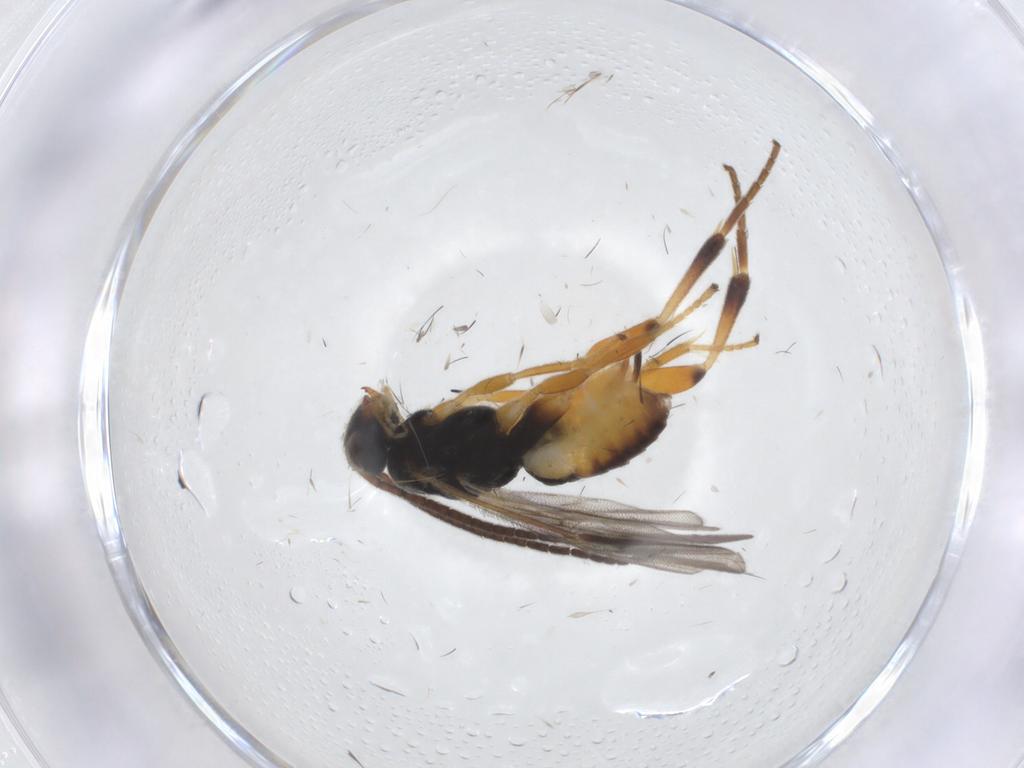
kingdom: Animalia
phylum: Arthropoda
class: Insecta
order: Hymenoptera
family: Braconidae
